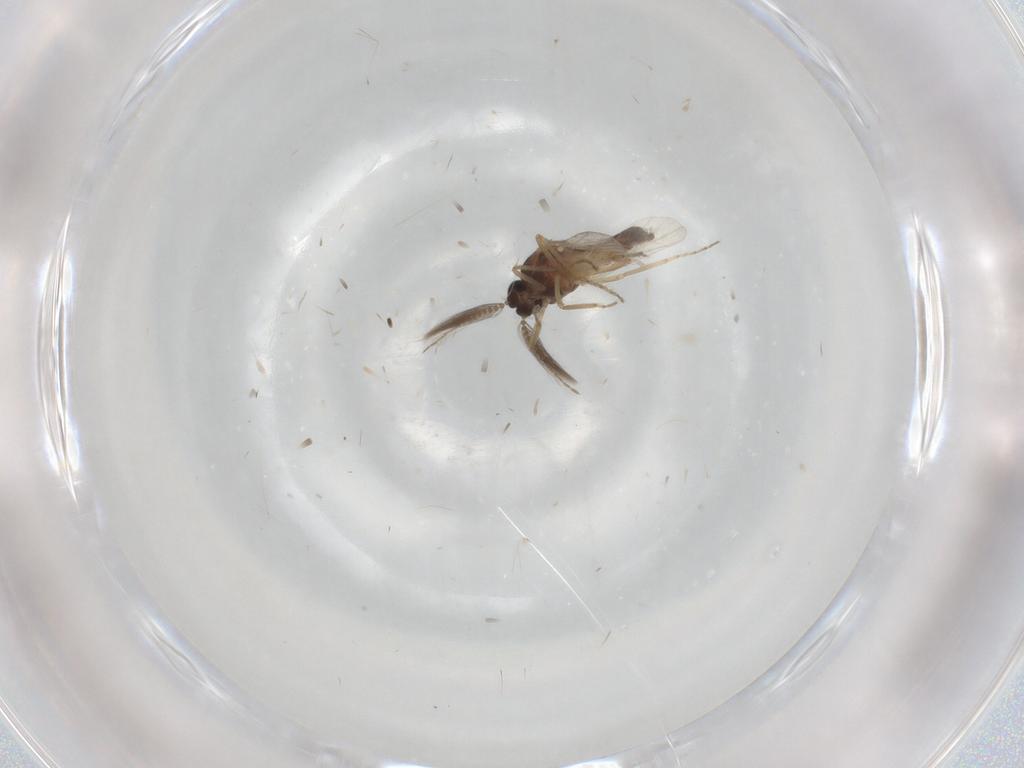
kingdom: Animalia
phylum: Arthropoda
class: Insecta
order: Diptera
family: Ceratopogonidae
